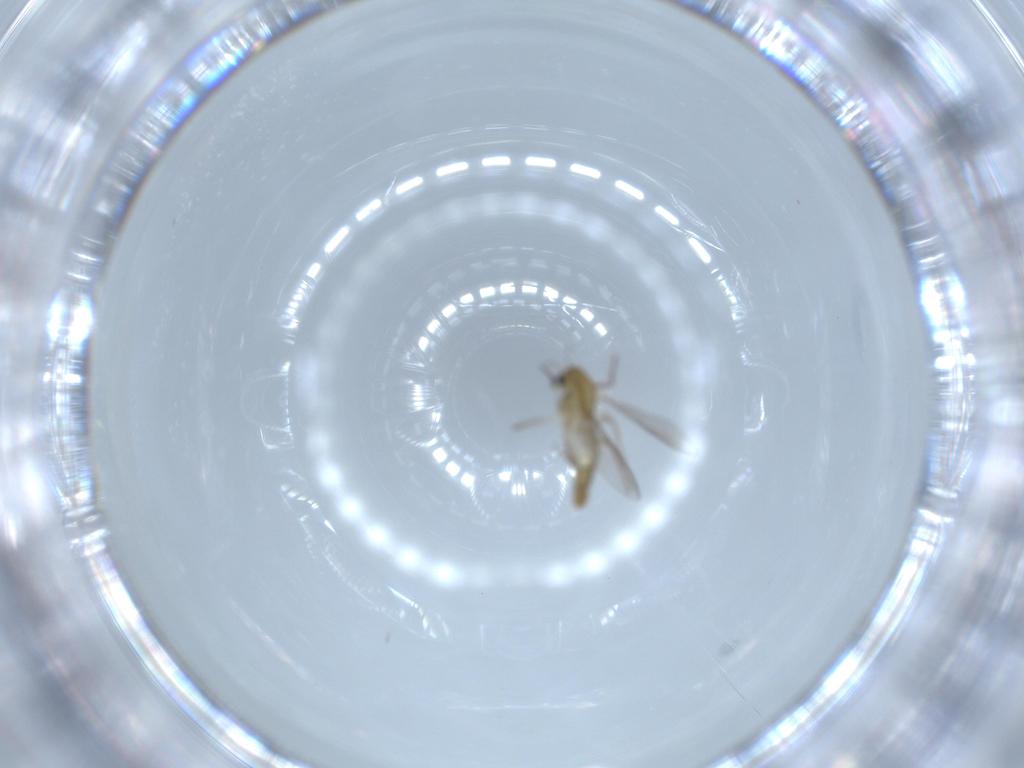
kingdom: Animalia
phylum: Arthropoda
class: Insecta
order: Diptera
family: Chironomidae
